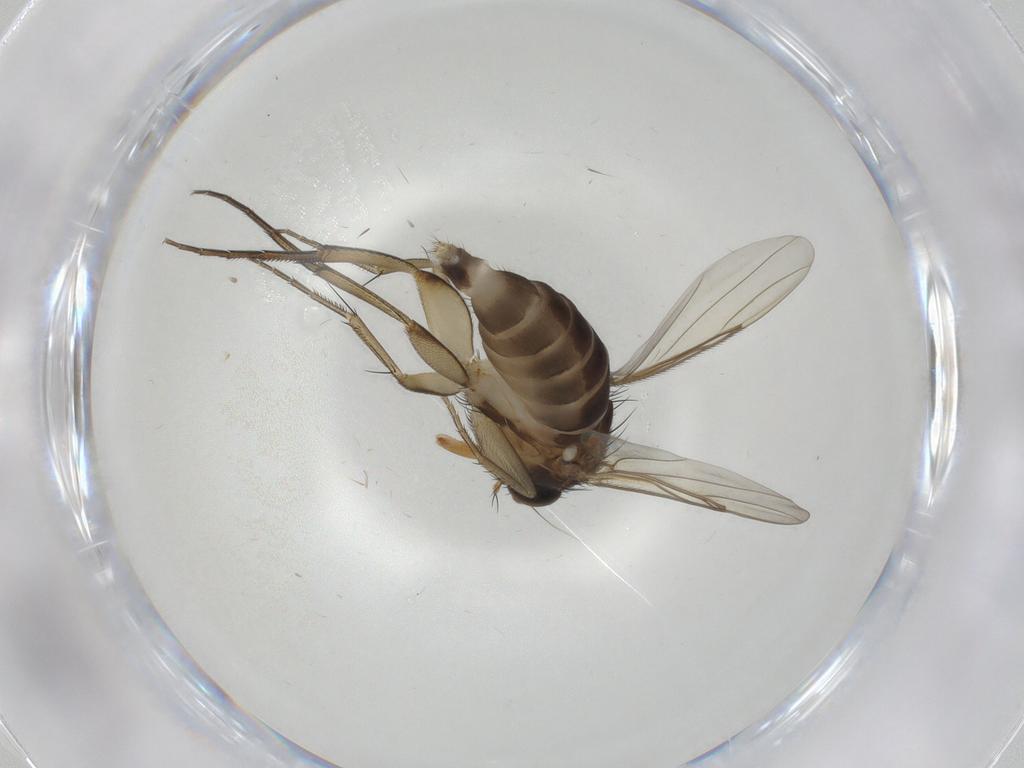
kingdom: Animalia
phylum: Arthropoda
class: Insecta
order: Diptera
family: Phoridae
